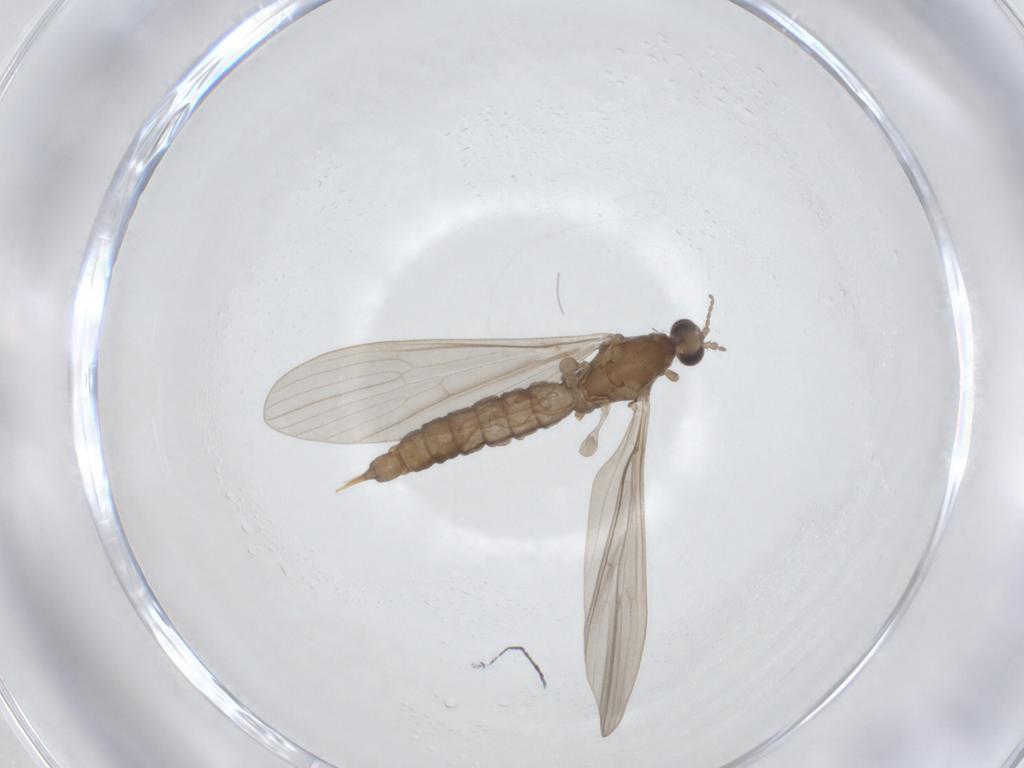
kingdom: Animalia
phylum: Arthropoda
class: Insecta
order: Diptera
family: Limoniidae
